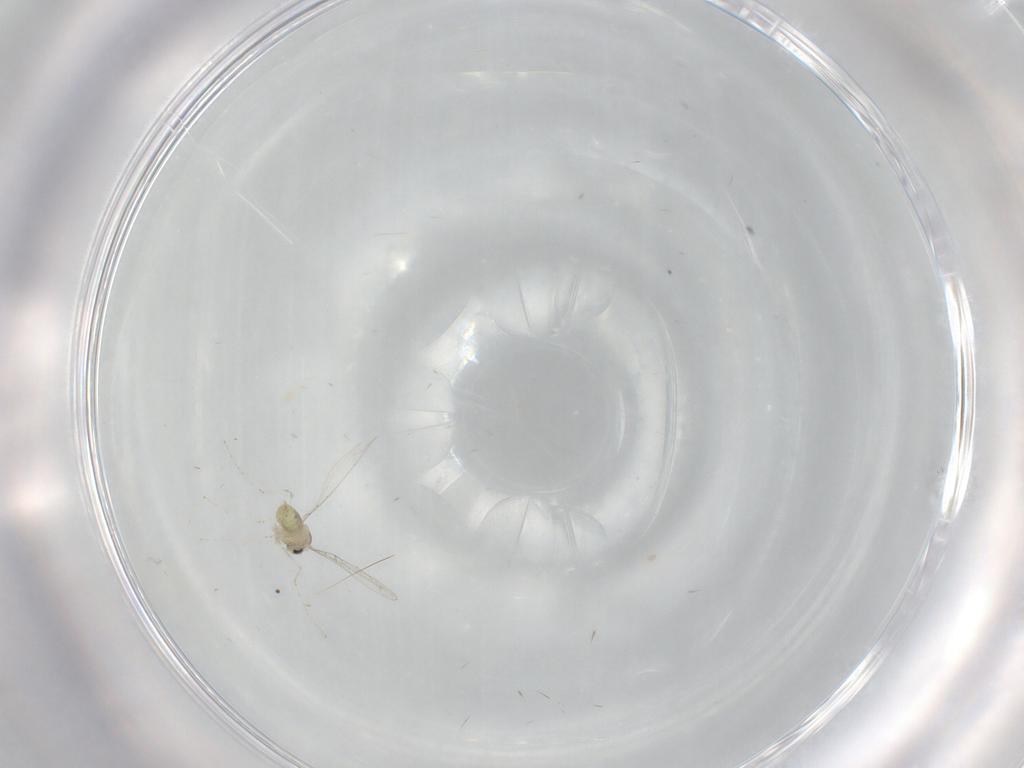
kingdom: Animalia
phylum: Arthropoda
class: Insecta
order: Diptera
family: Cecidomyiidae
